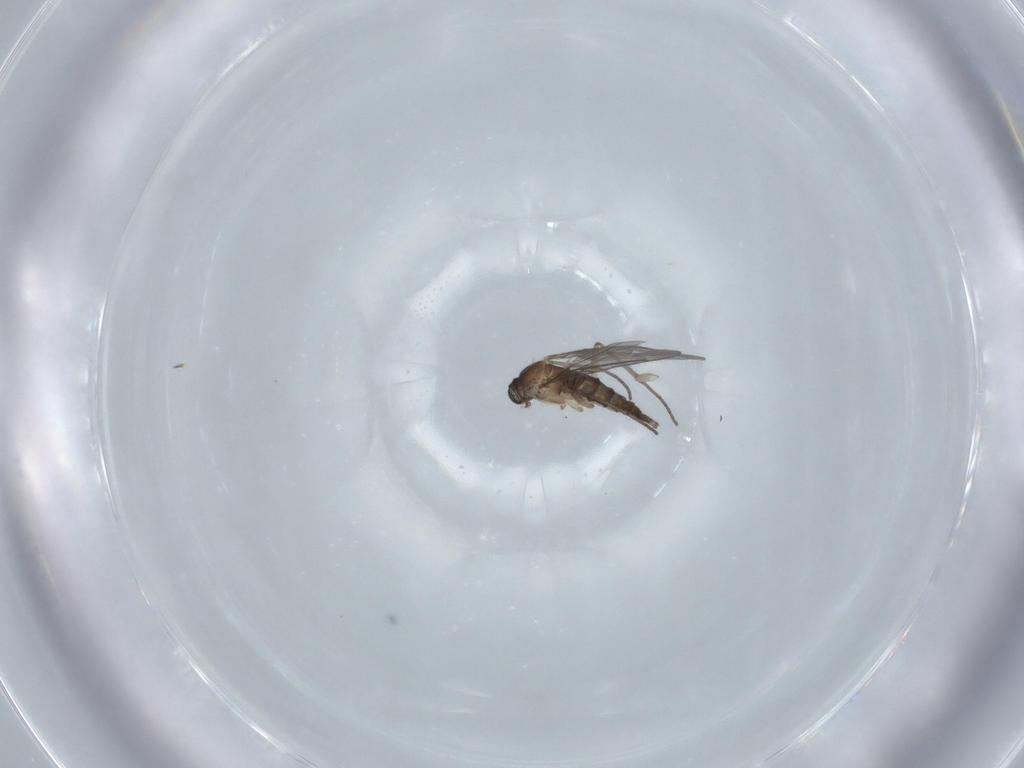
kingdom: Animalia
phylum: Arthropoda
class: Insecta
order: Diptera
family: Sciaridae
